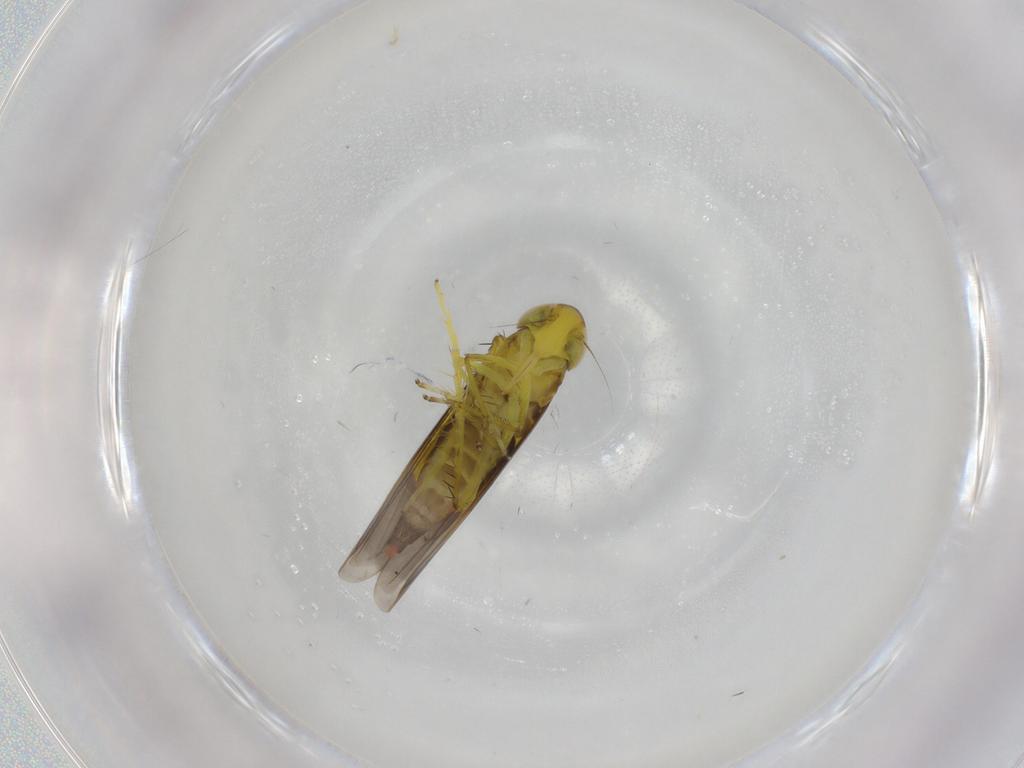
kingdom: Animalia
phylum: Arthropoda
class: Insecta
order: Hemiptera
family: Cicadellidae
